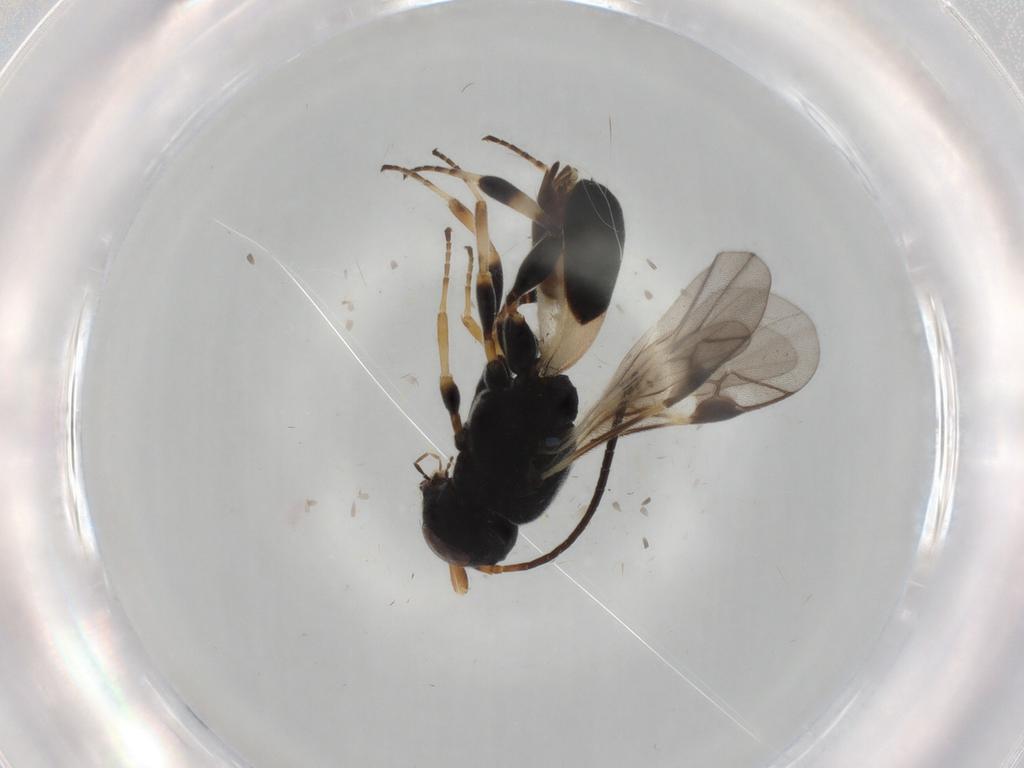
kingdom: Animalia
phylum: Arthropoda
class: Insecta
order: Hymenoptera
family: Braconidae
